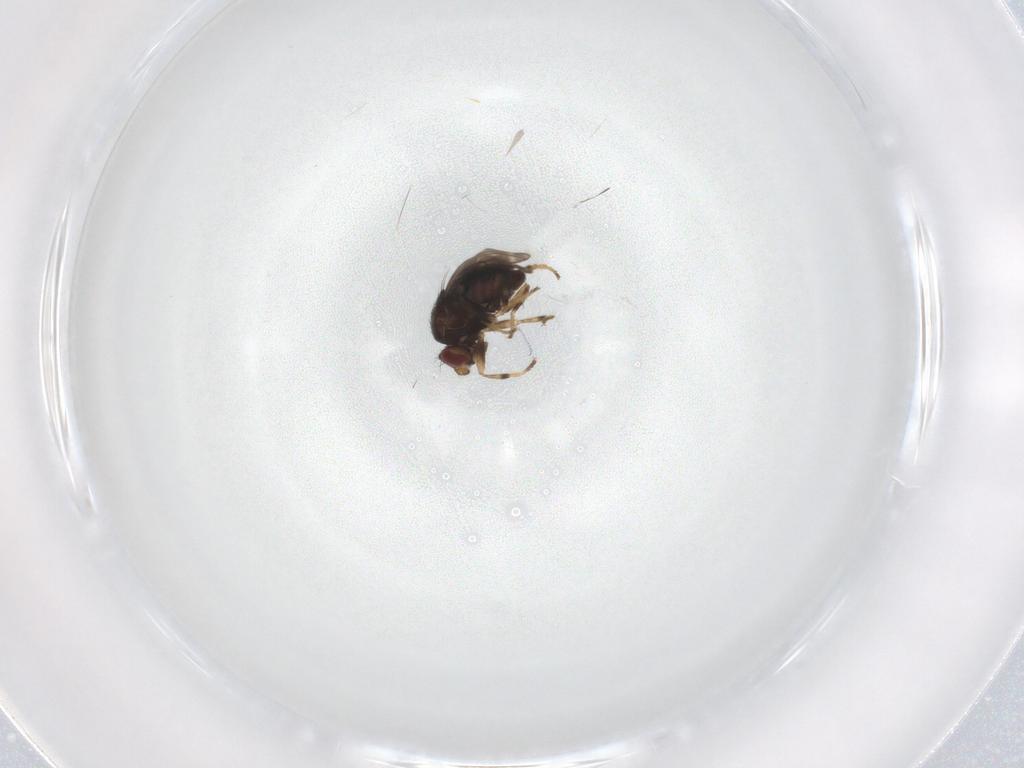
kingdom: Animalia
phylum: Arthropoda
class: Insecta
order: Diptera
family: Sphaeroceridae
